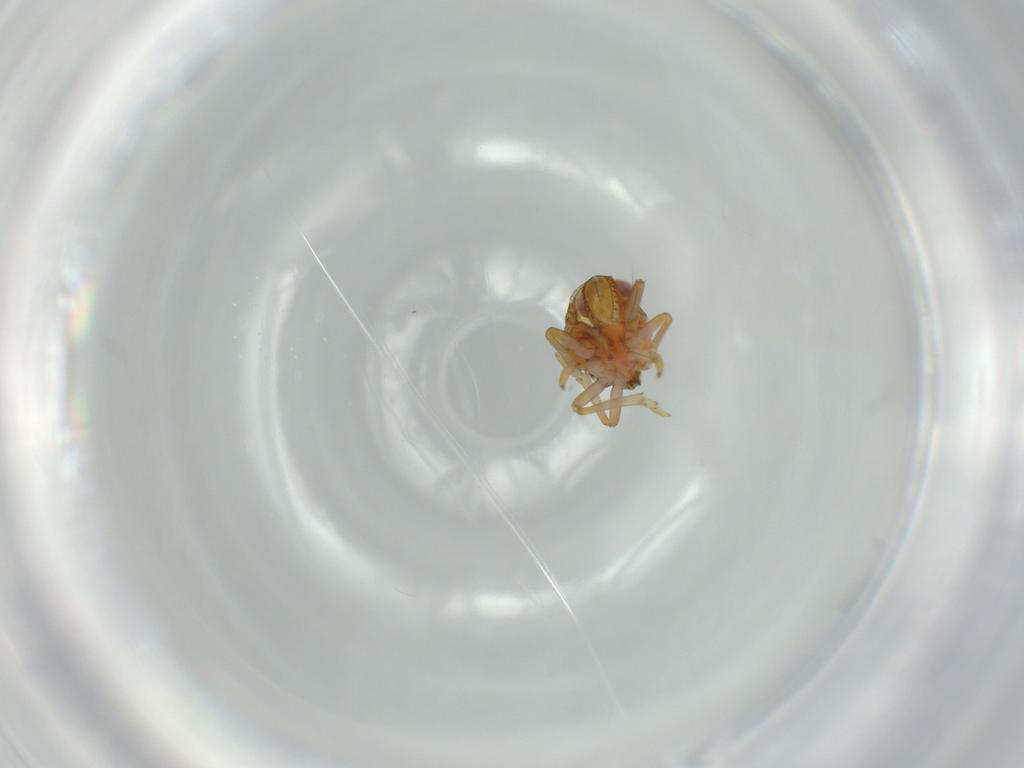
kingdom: Animalia
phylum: Arthropoda
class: Insecta
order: Hemiptera
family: Issidae
